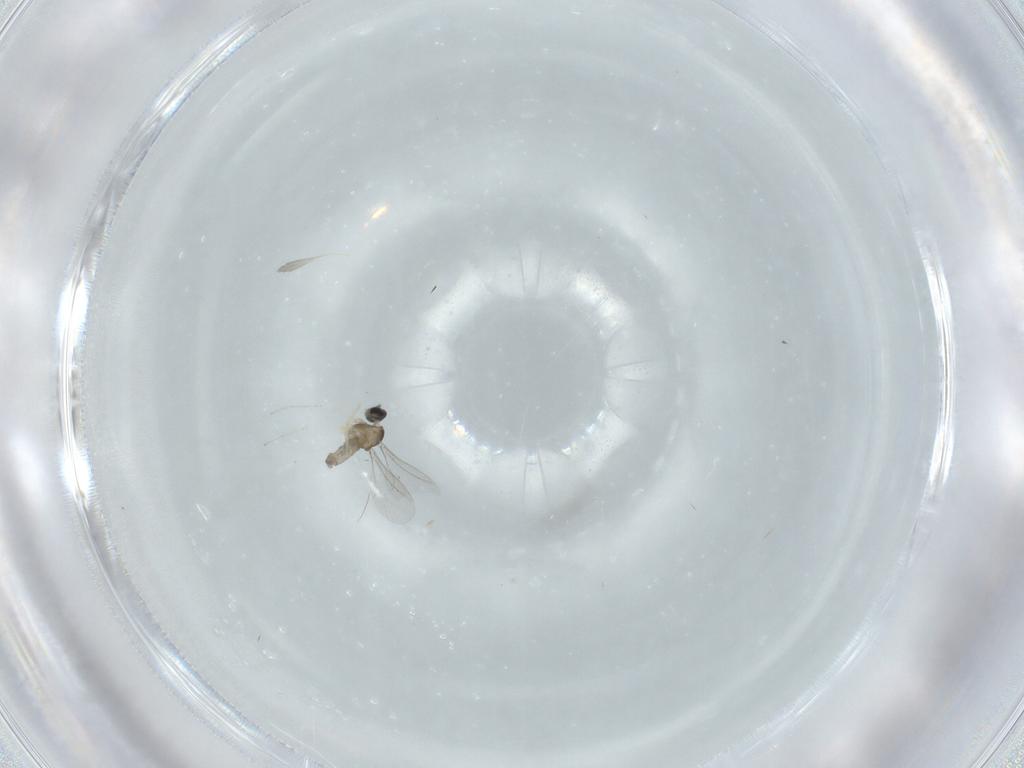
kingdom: Animalia
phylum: Arthropoda
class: Insecta
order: Diptera
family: Cecidomyiidae
